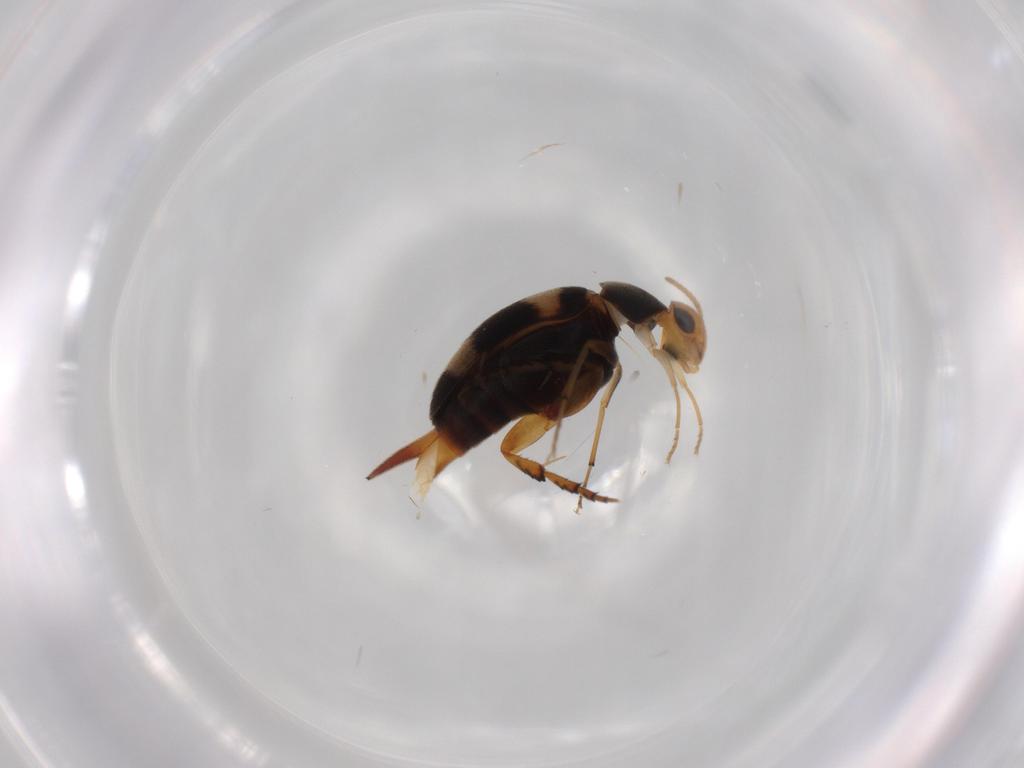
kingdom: Animalia
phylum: Arthropoda
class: Insecta
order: Coleoptera
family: Mordellidae
